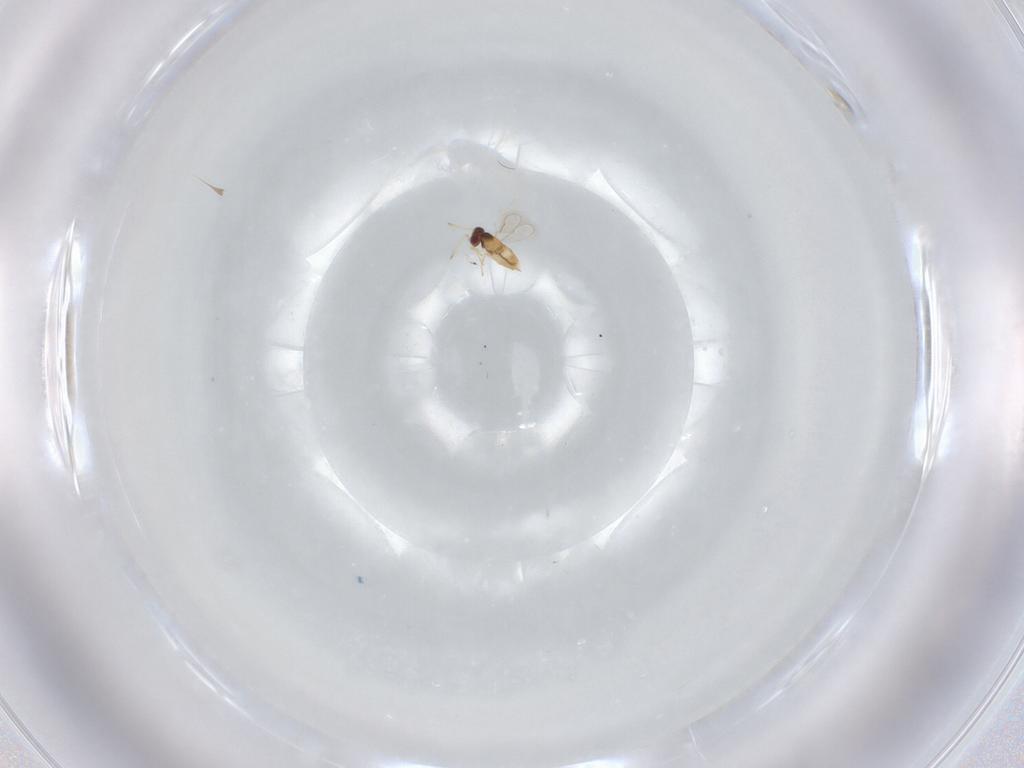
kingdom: Animalia
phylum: Arthropoda
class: Insecta
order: Hymenoptera
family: Aphelinidae
